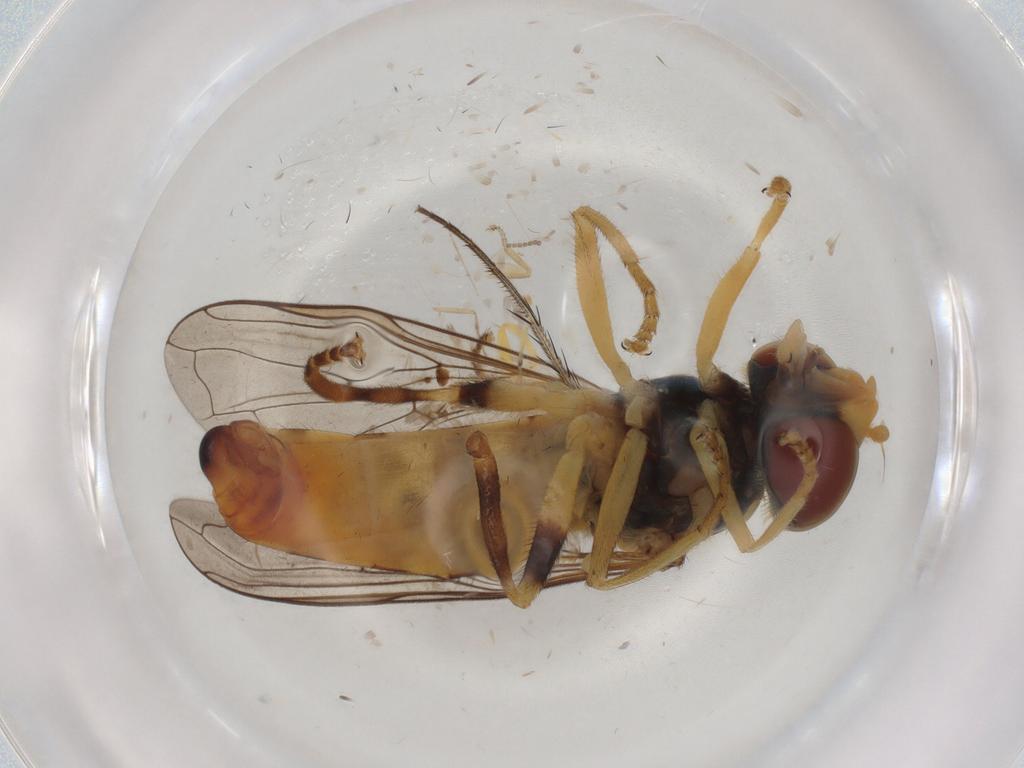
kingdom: Animalia
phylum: Arthropoda
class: Insecta
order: Diptera
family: Syrphidae
